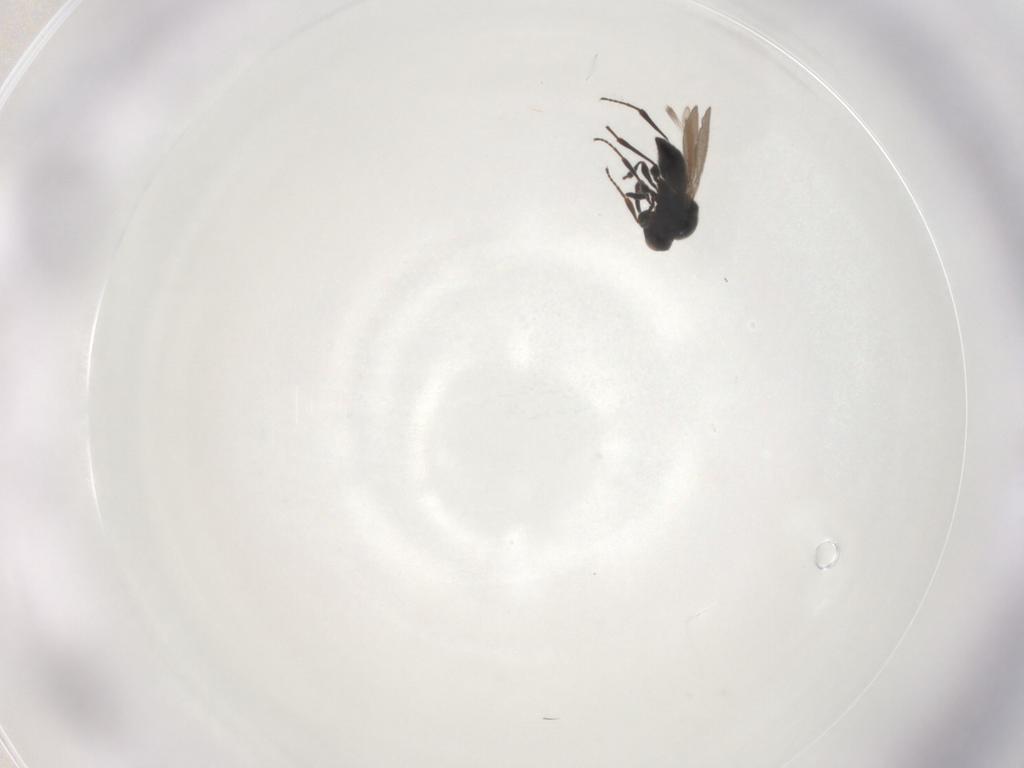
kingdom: Animalia
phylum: Arthropoda
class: Insecta
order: Hymenoptera
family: Platygastridae
